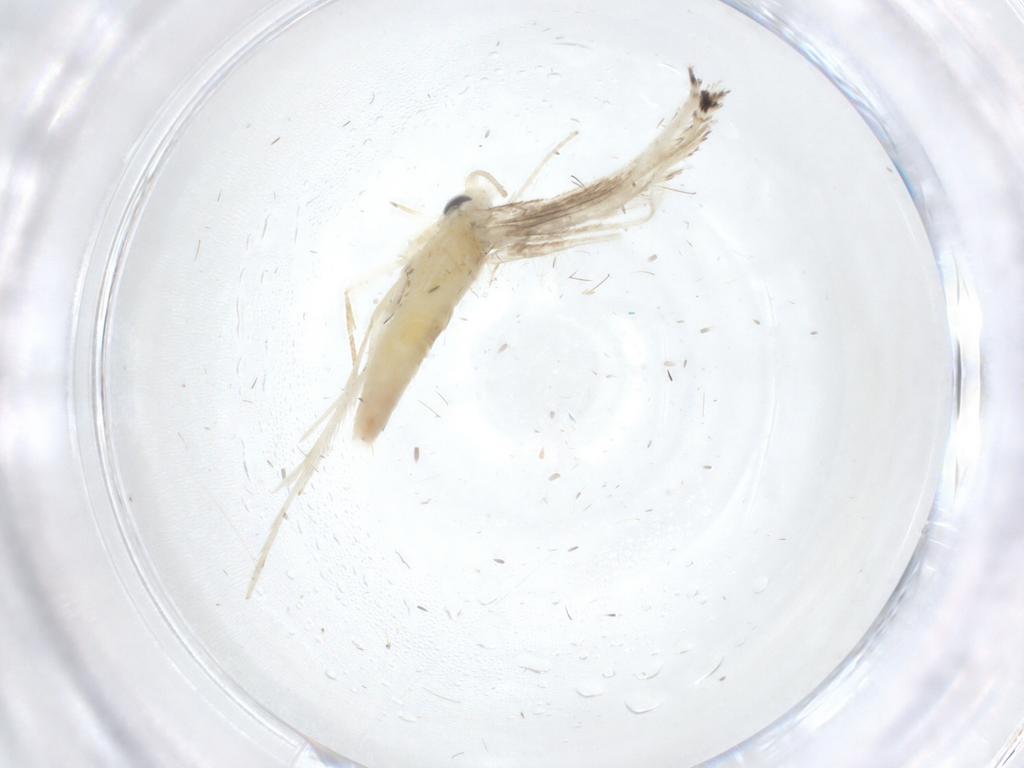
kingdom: Animalia
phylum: Arthropoda
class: Insecta
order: Lepidoptera
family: Gracillariidae
